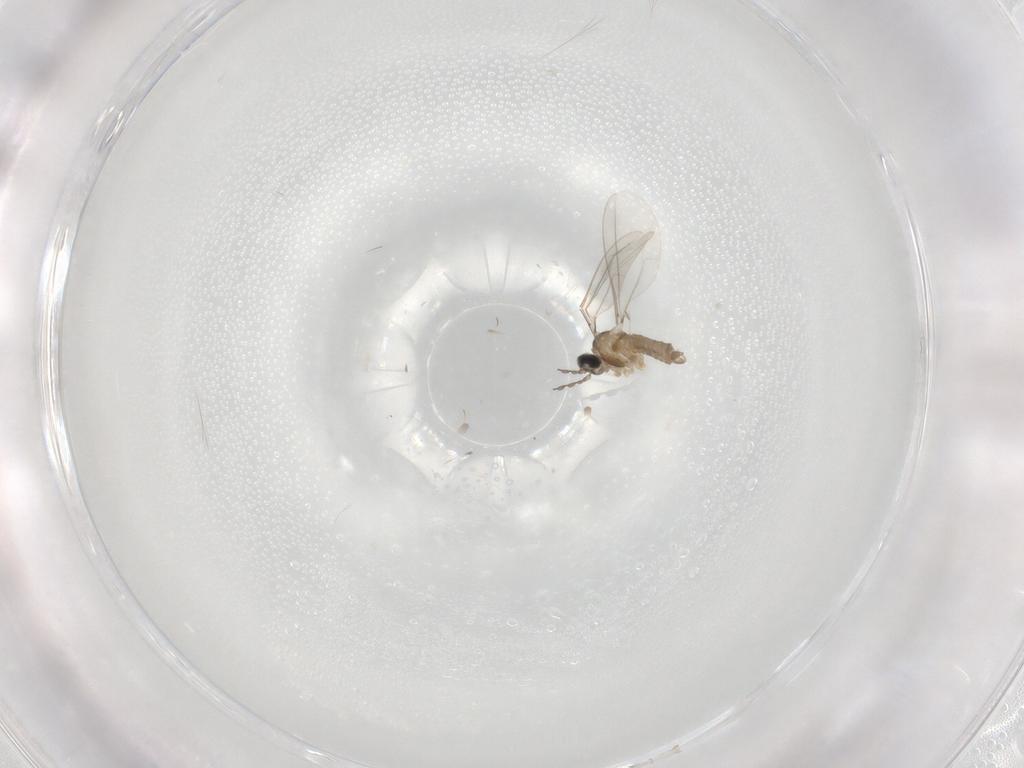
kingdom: Animalia
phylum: Arthropoda
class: Insecta
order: Diptera
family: Cecidomyiidae
